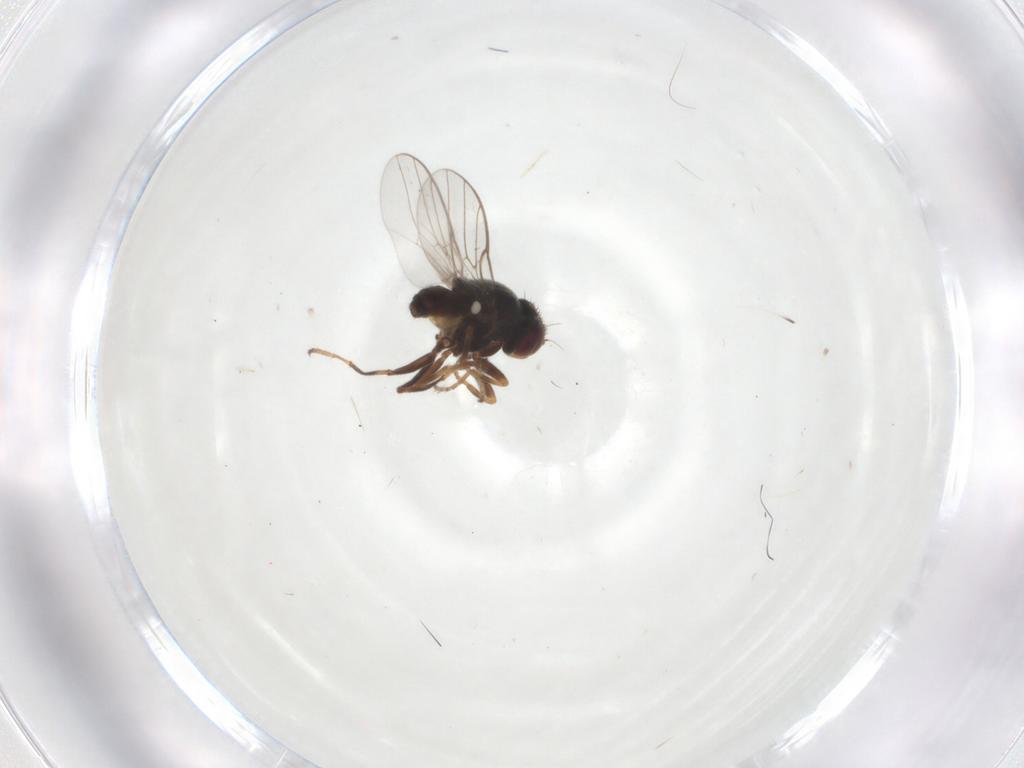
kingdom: Animalia
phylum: Arthropoda
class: Insecta
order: Diptera
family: Chloropidae
